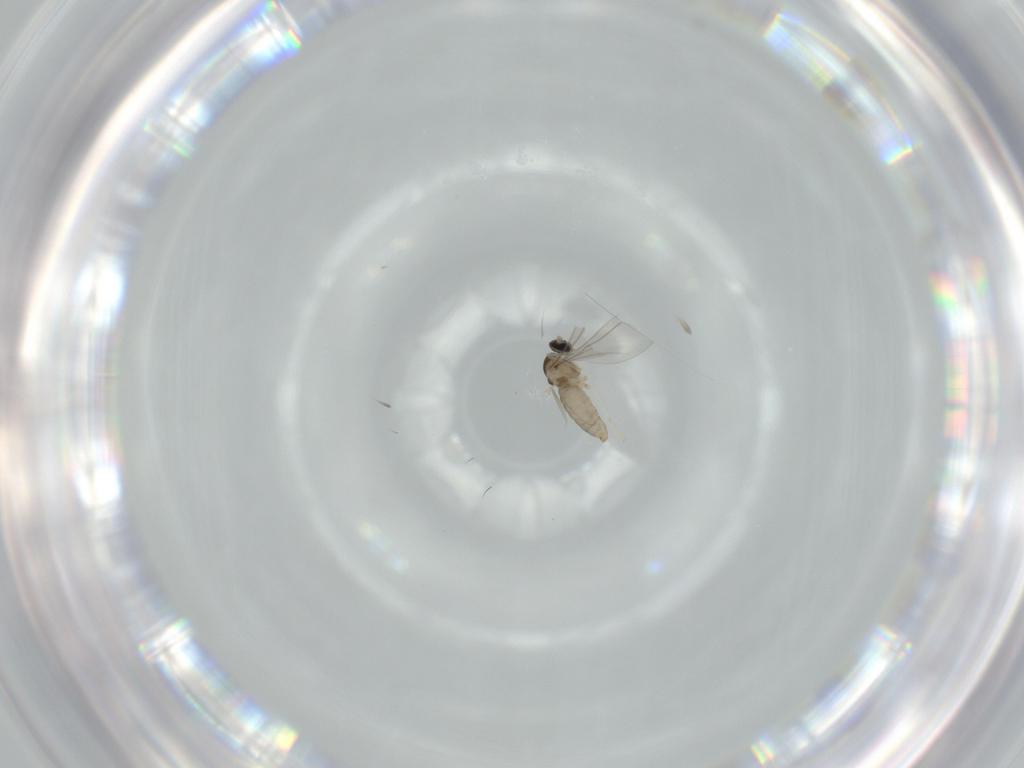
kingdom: Animalia
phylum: Arthropoda
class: Insecta
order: Diptera
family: Cecidomyiidae
